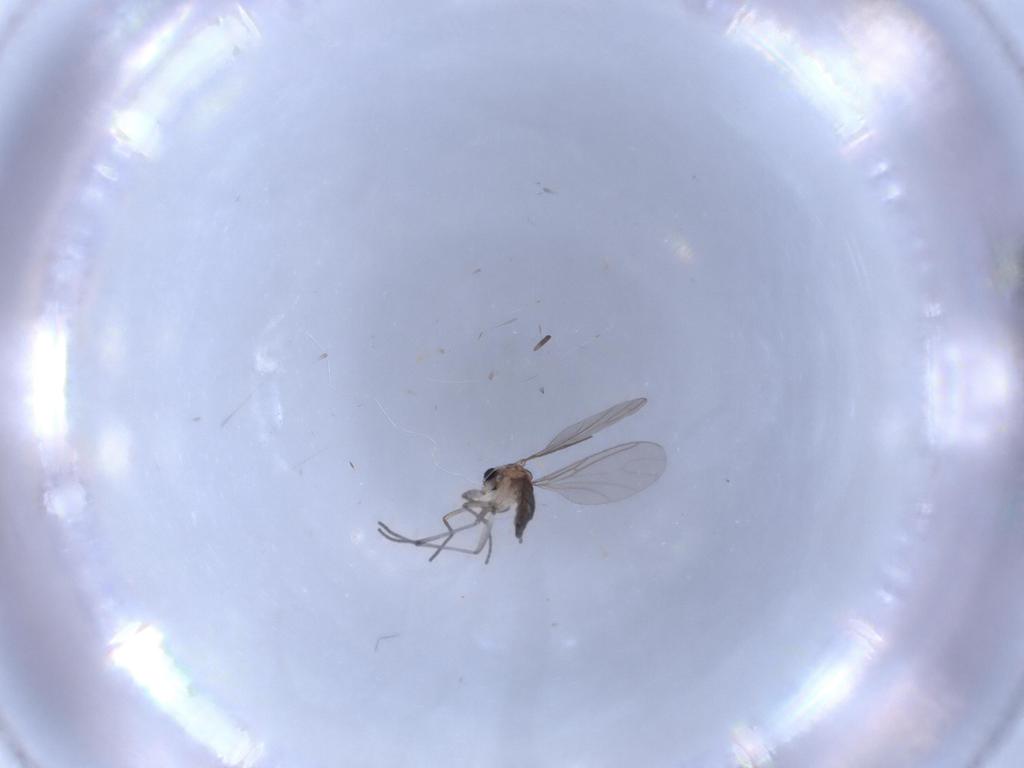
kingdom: Animalia
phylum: Arthropoda
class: Insecta
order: Diptera
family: Sciaridae
